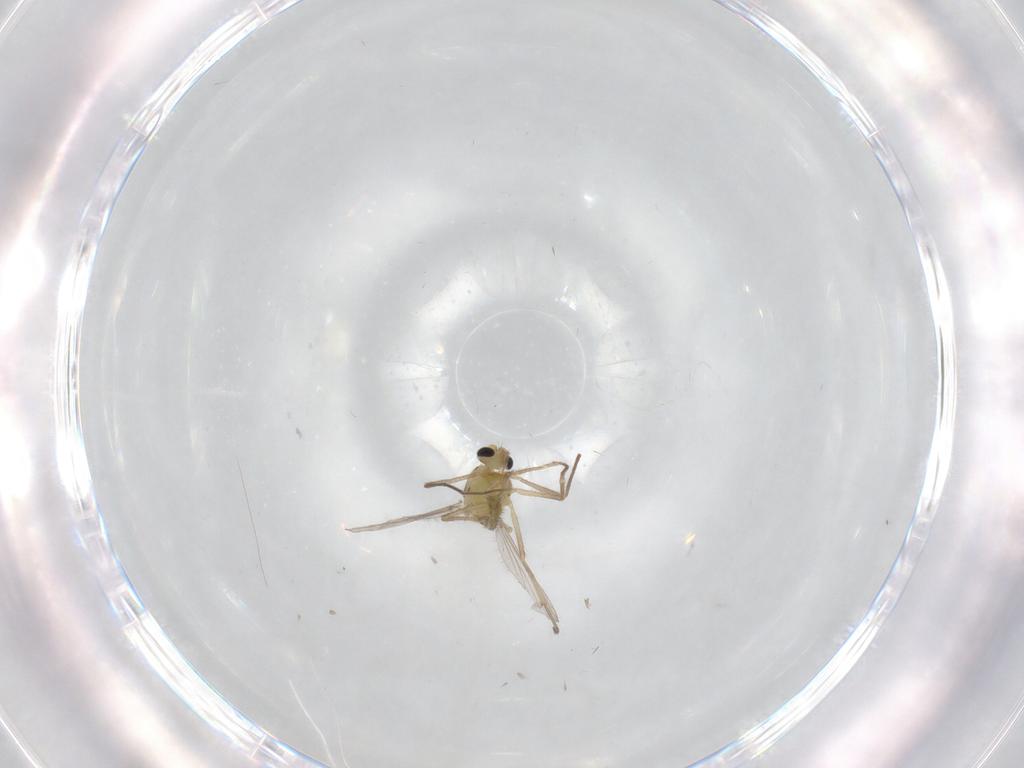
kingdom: Animalia
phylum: Arthropoda
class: Insecta
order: Diptera
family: Chironomidae
